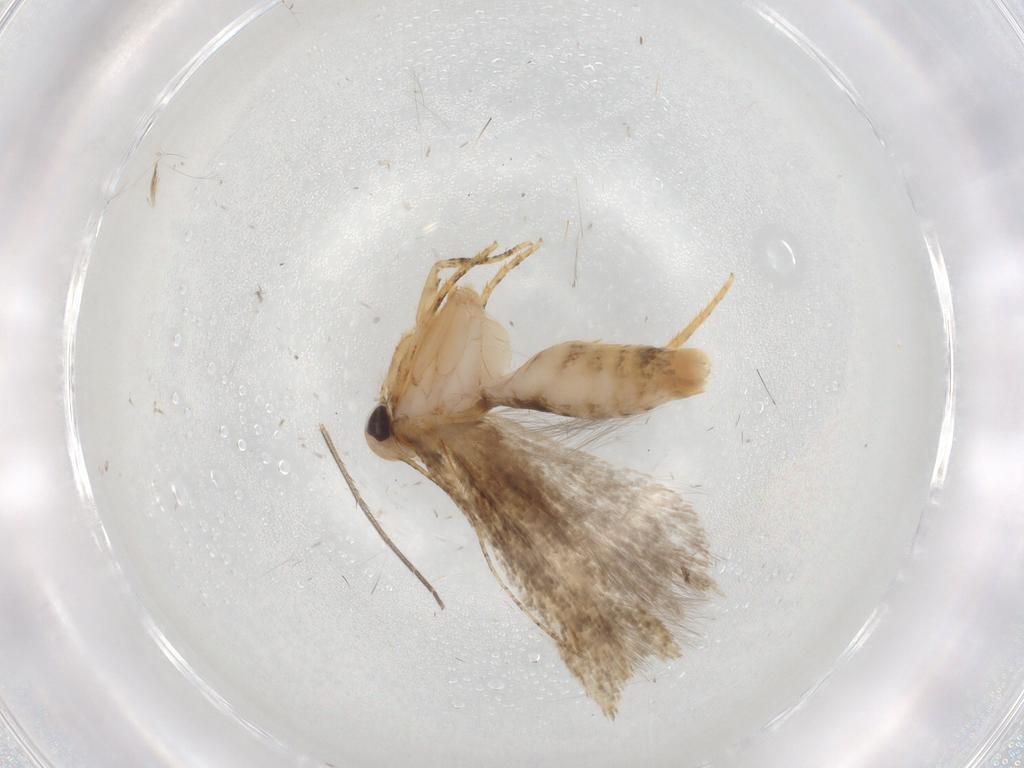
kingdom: Animalia
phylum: Arthropoda
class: Insecta
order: Lepidoptera
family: Gelechiidae
